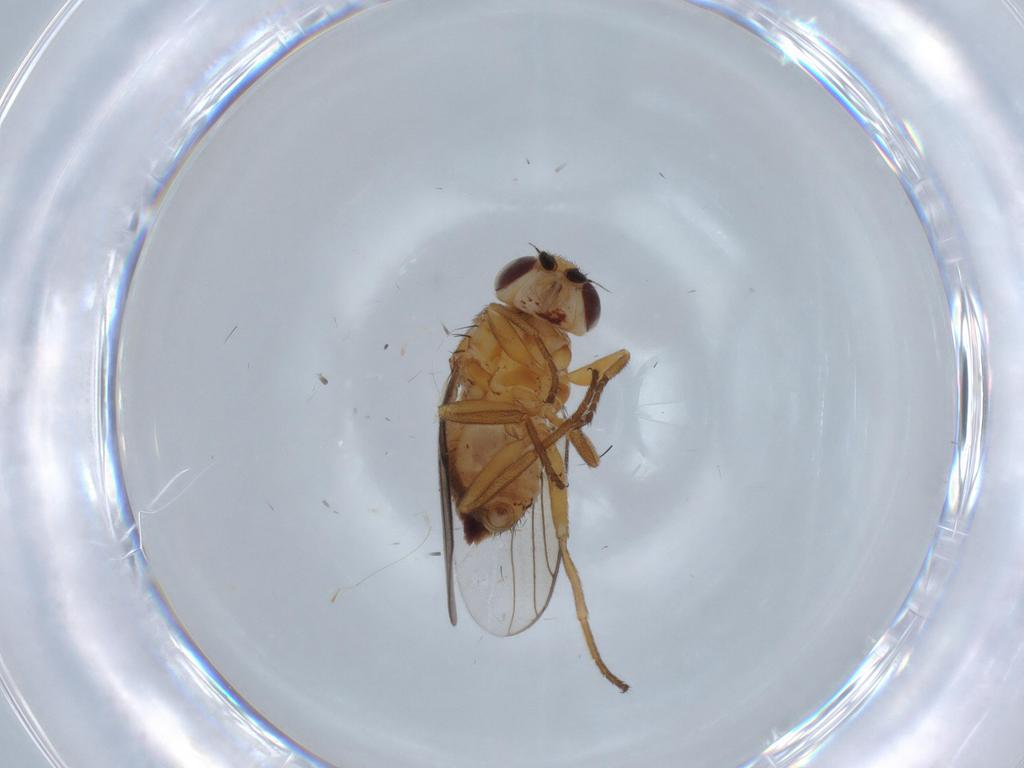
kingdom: Animalia
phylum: Arthropoda
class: Insecta
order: Diptera
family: Chloropidae
